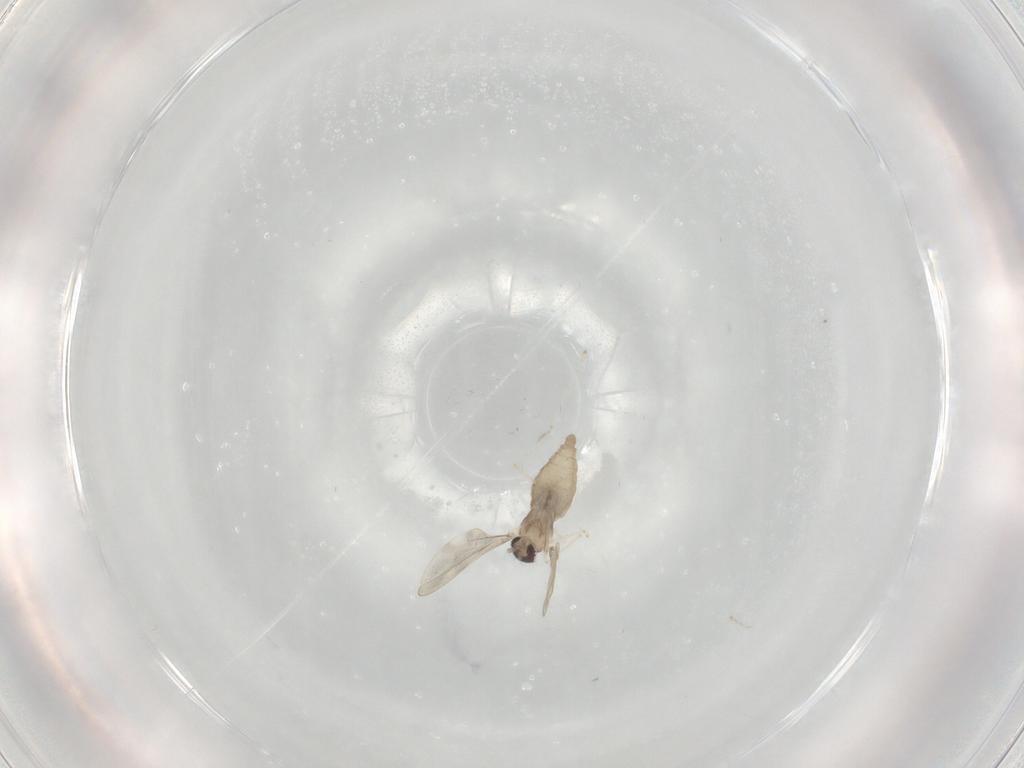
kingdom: Animalia
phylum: Arthropoda
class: Insecta
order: Diptera
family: Cecidomyiidae
